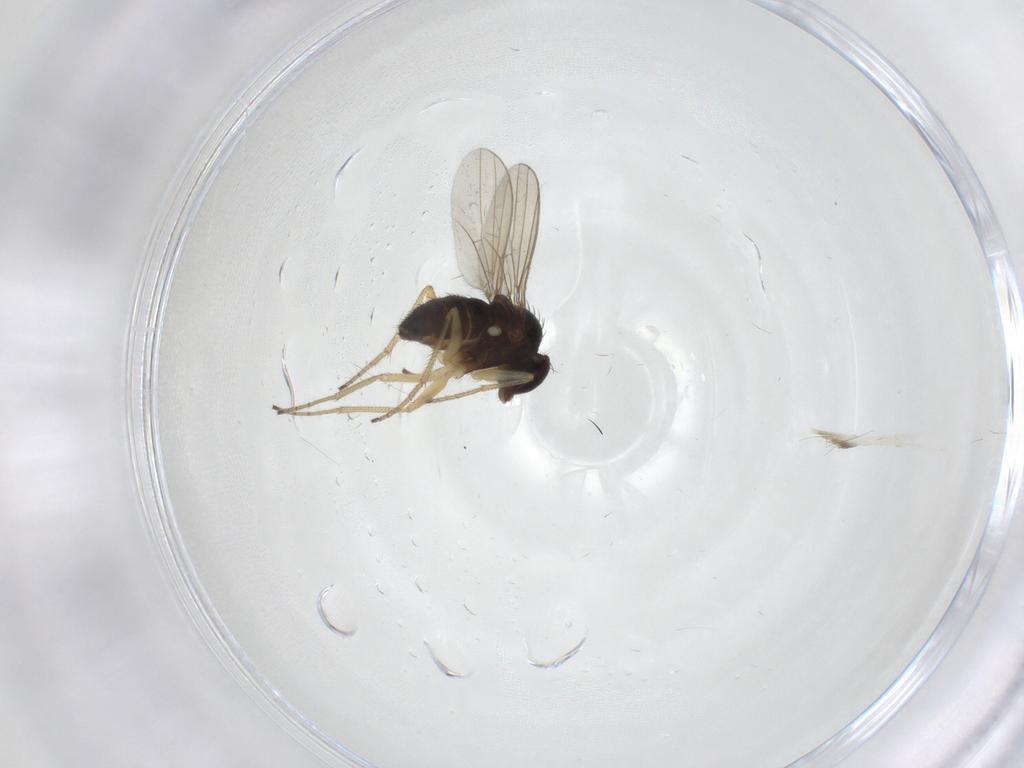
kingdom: Animalia
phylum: Arthropoda
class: Insecta
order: Diptera
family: Dolichopodidae
